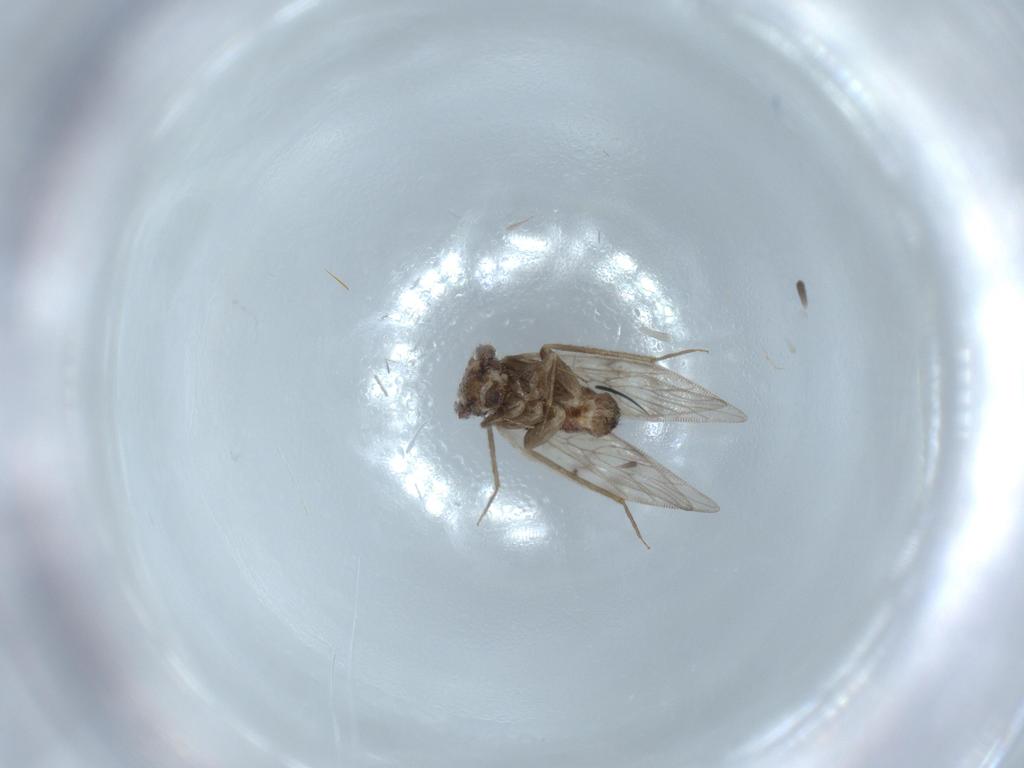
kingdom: Animalia
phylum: Arthropoda
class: Insecta
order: Psocodea
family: Lepidopsocidae
